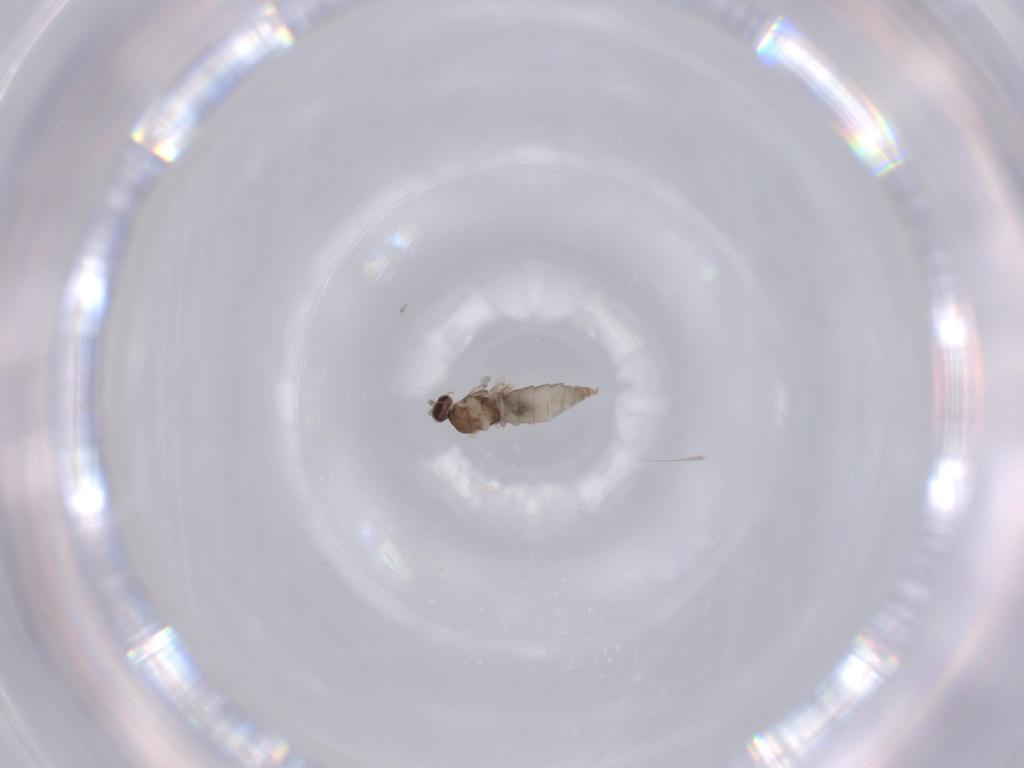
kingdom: Animalia
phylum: Arthropoda
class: Insecta
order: Diptera
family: Cecidomyiidae
